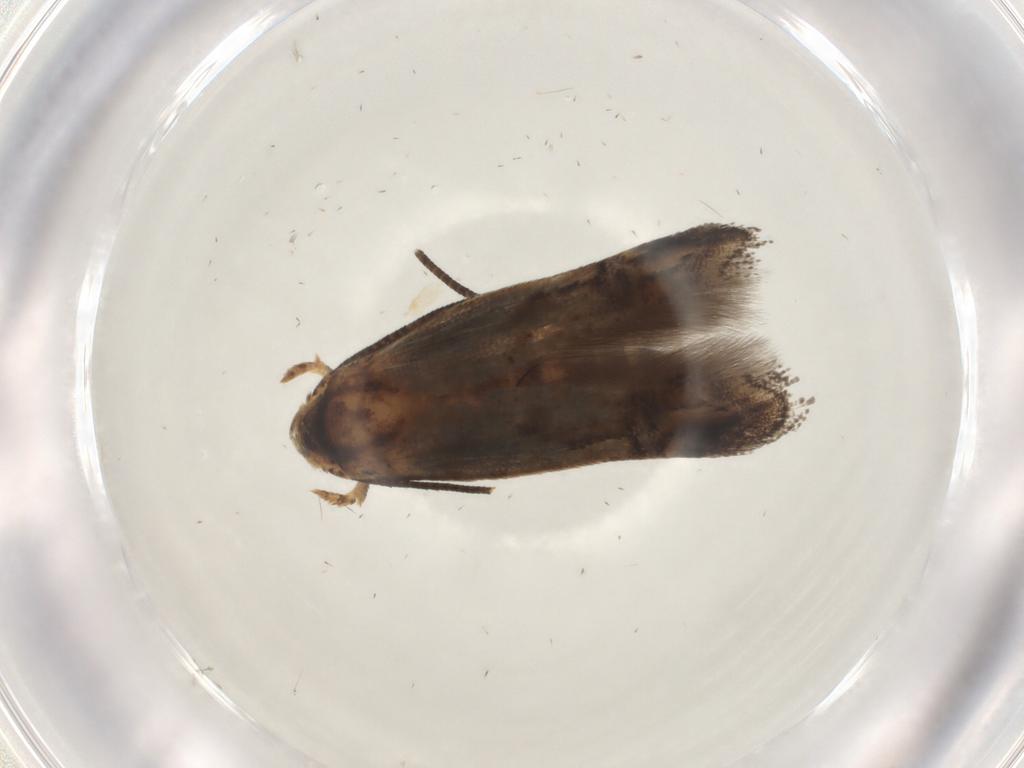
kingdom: Animalia
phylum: Arthropoda
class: Insecta
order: Lepidoptera
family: Tineidae
